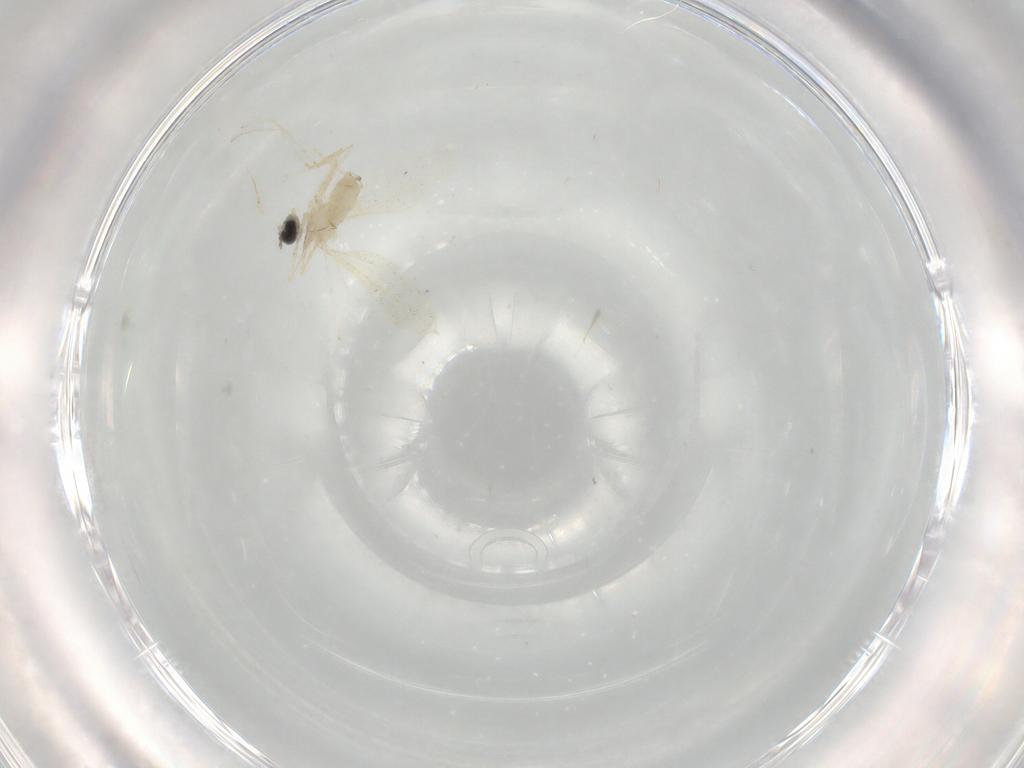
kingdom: Animalia
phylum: Arthropoda
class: Insecta
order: Diptera
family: Cecidomyiidae
